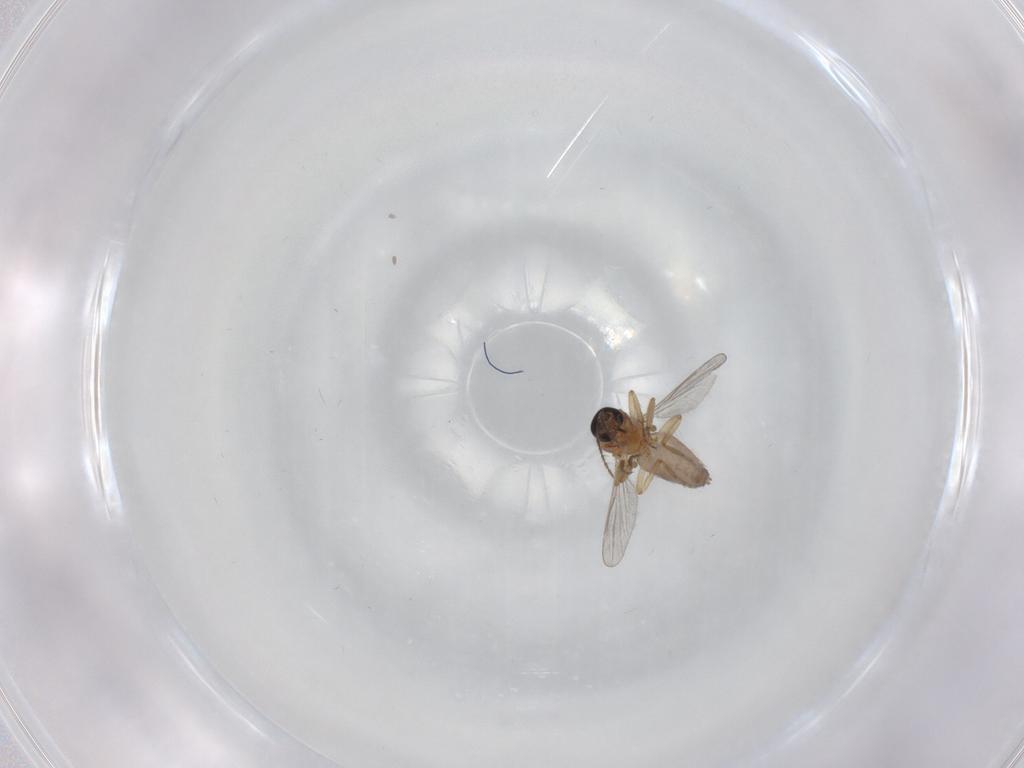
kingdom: Animalia
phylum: Arthropoda
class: Insecta
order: Diptera
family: Ceratopogonidae
